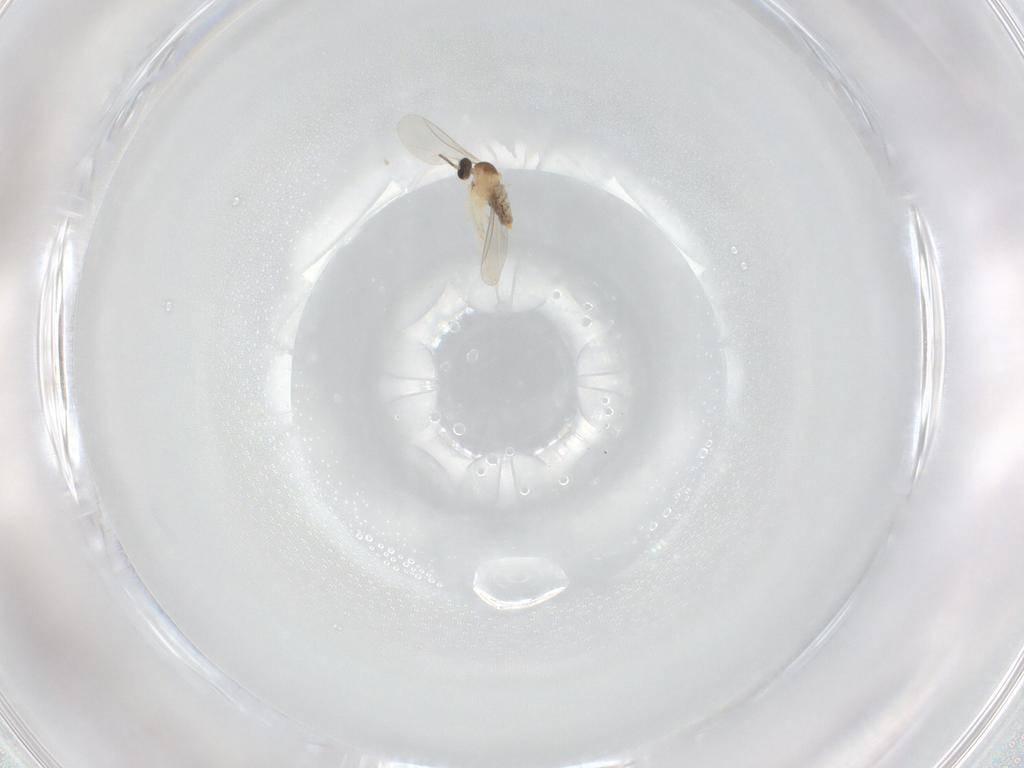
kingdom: Animalia
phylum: Arthropoda
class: Insecta
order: Diptera
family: Cecidomyiidae
